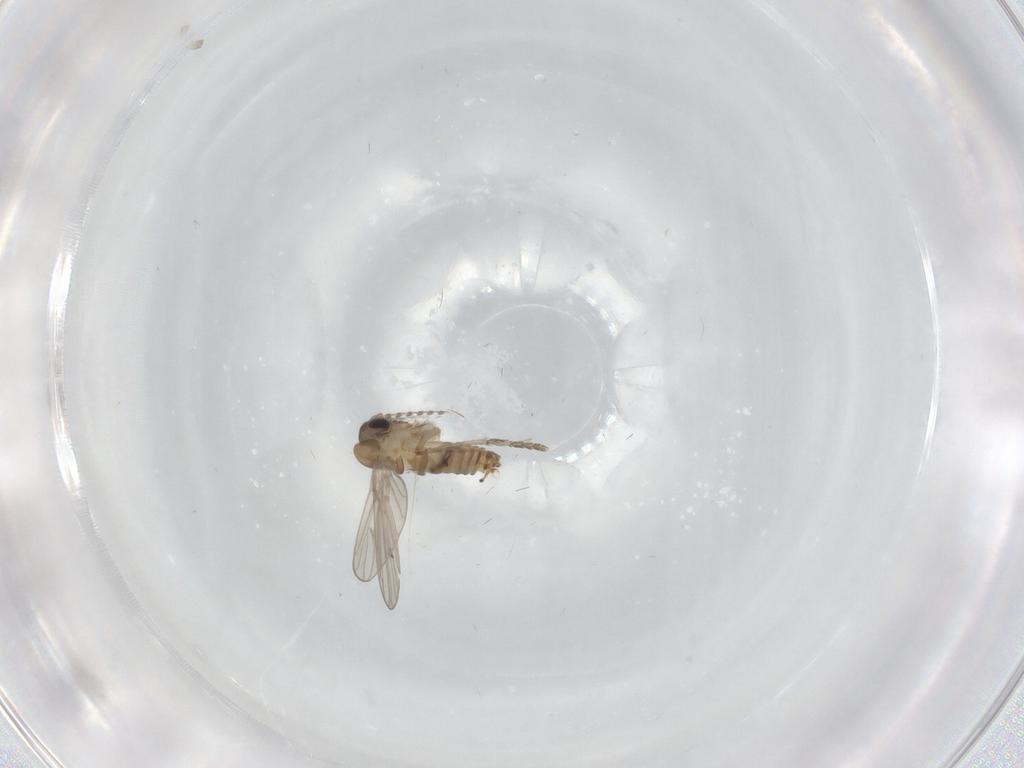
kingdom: Animalia
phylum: Arthropoda
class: Insecta
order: Diptera
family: Psychodidae
